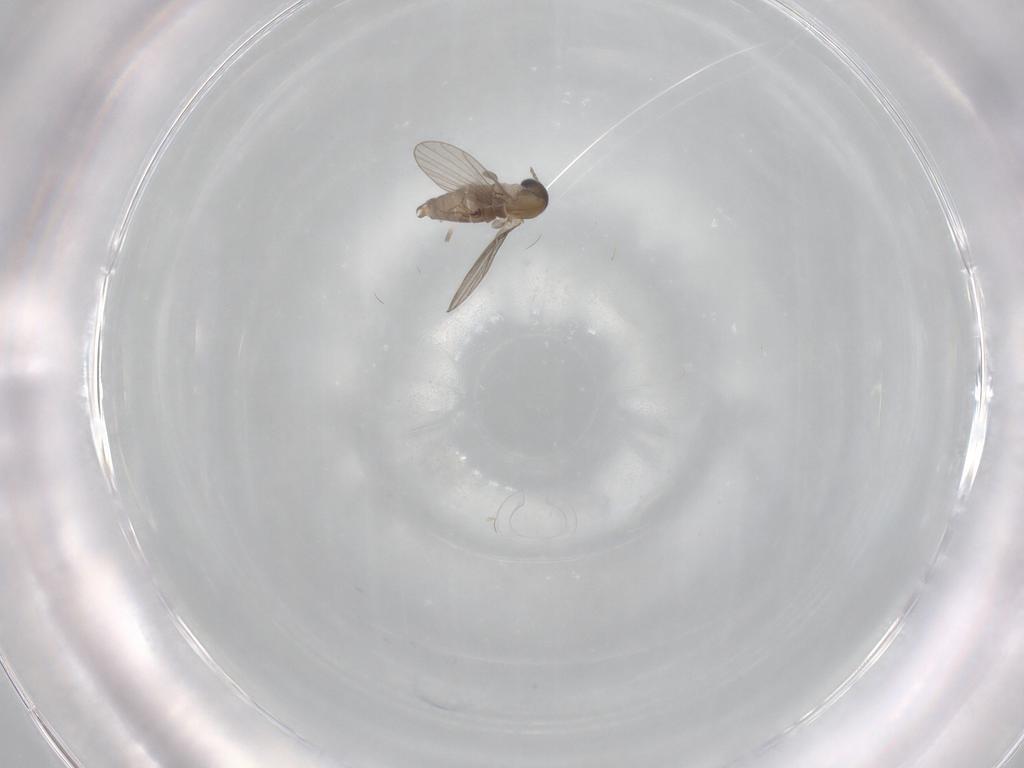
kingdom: Animalia
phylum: Arthropoda
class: Insecta
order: Diptera
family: Psychodidae
